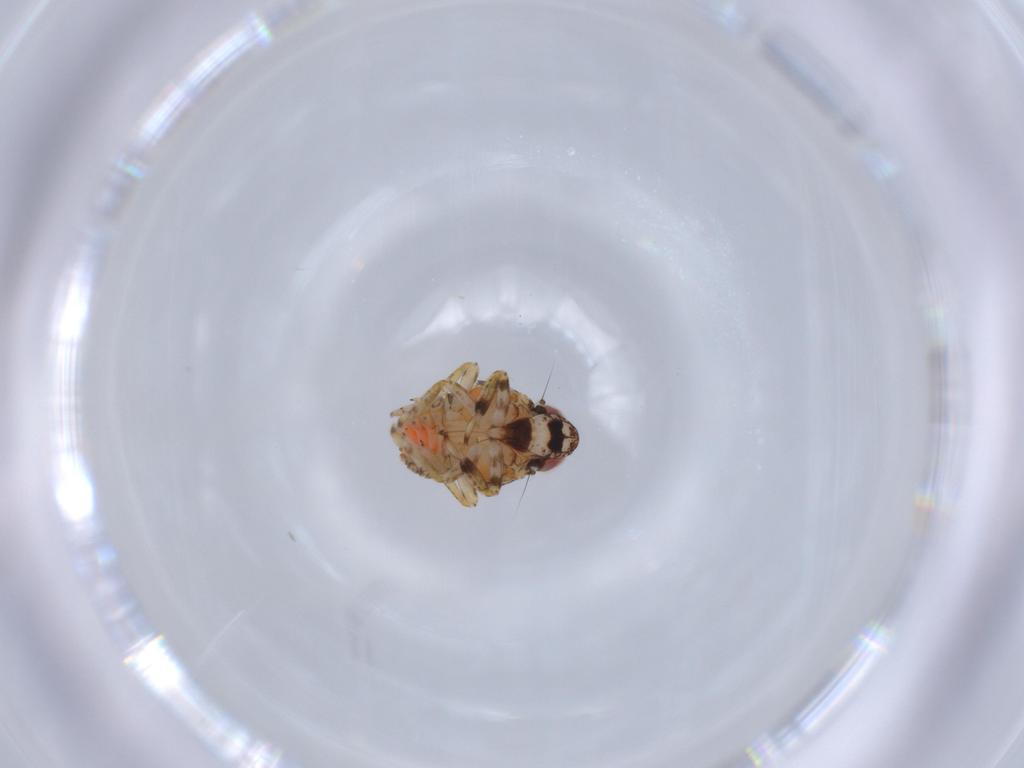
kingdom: Animalia
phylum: Arthropoda
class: Insecta
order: Hemiptera
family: Issidae
